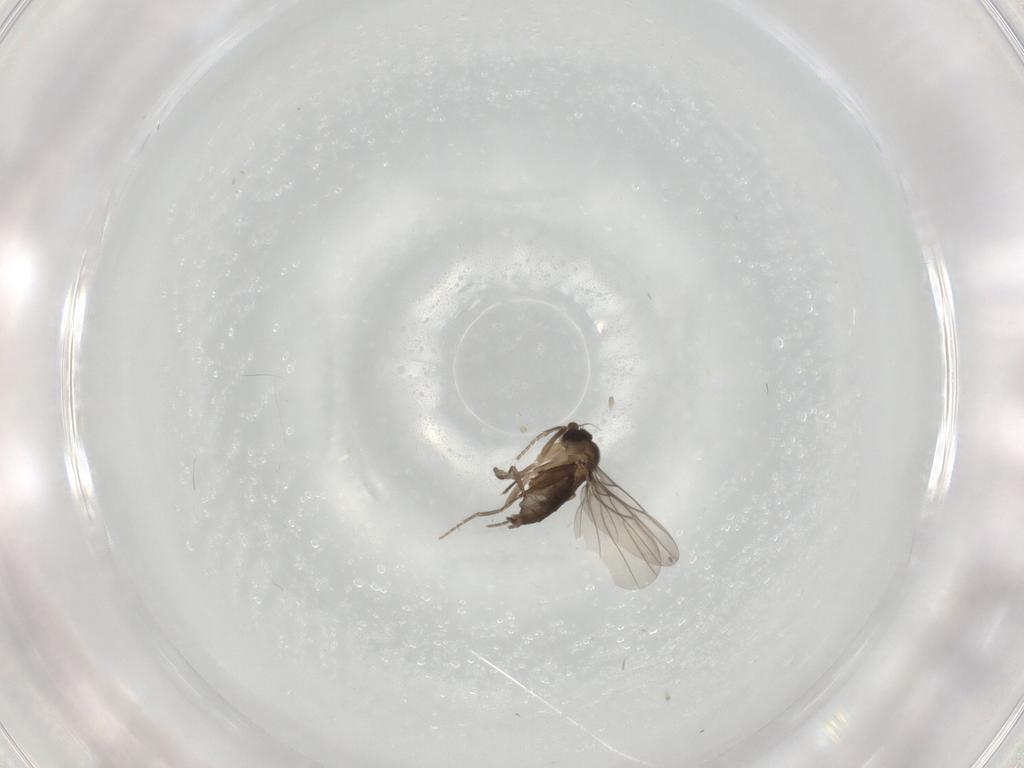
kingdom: Animalia
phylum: Arthropoda
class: Insecta
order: Diptera
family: Phoridae
